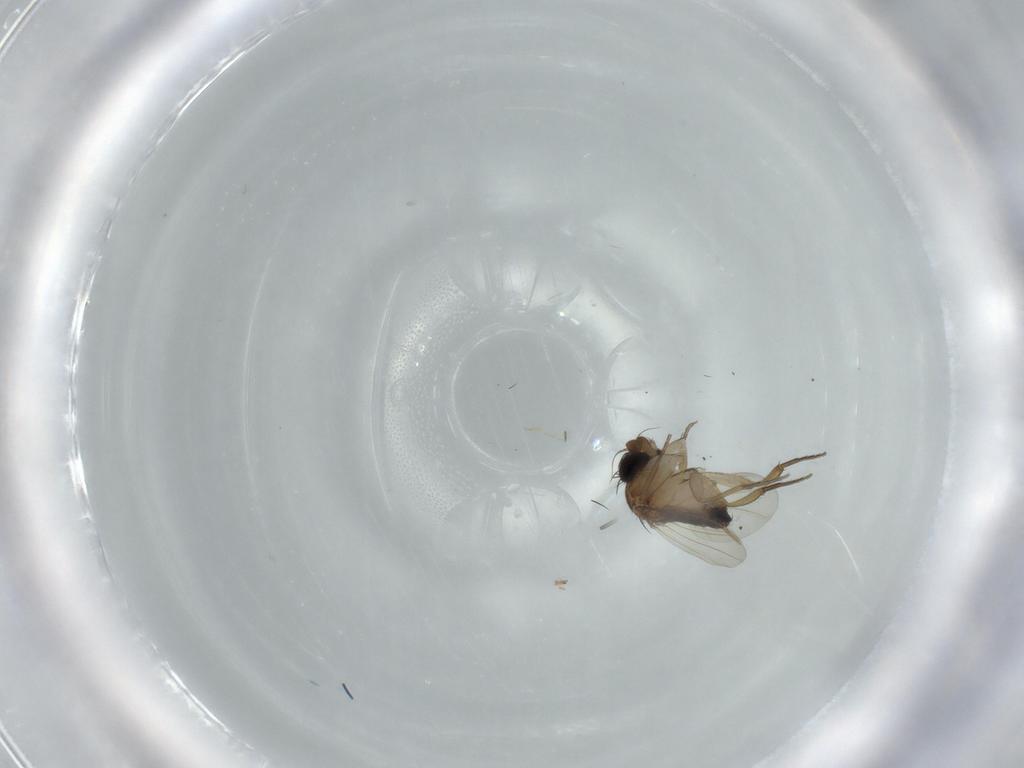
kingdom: Animalia
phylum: Arthropoda
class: Insecta
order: Diptera
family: Phoridae
